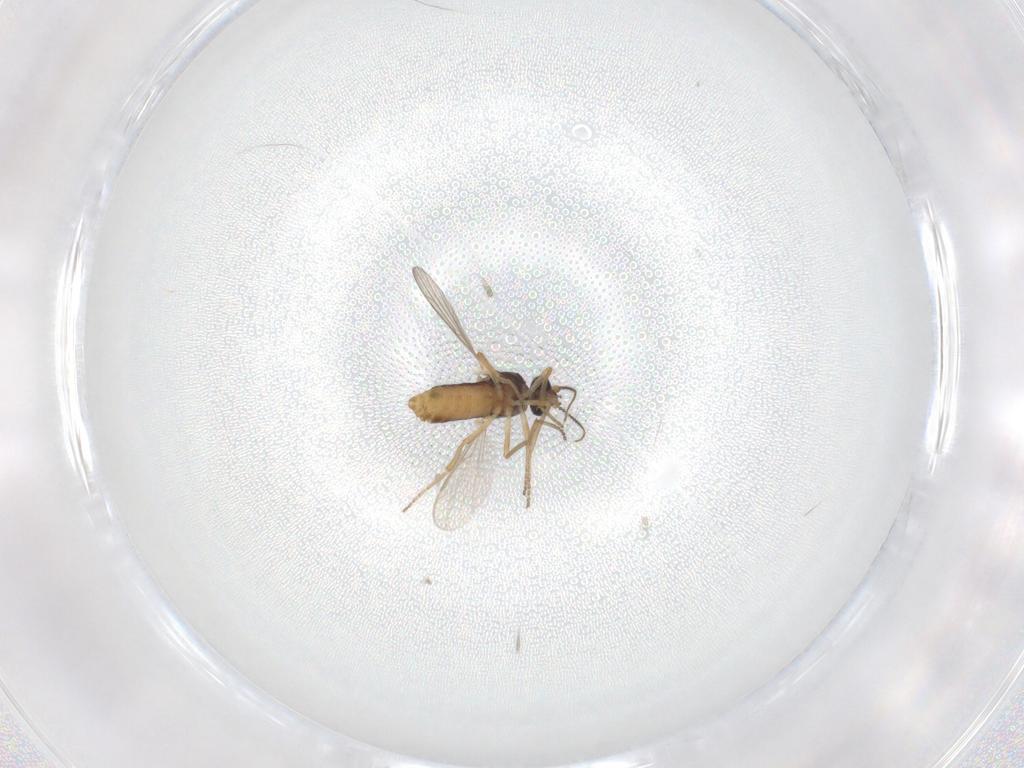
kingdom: Animalia
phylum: Arthropoda
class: Insecta
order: Diptera
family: Ceratopogonidae
